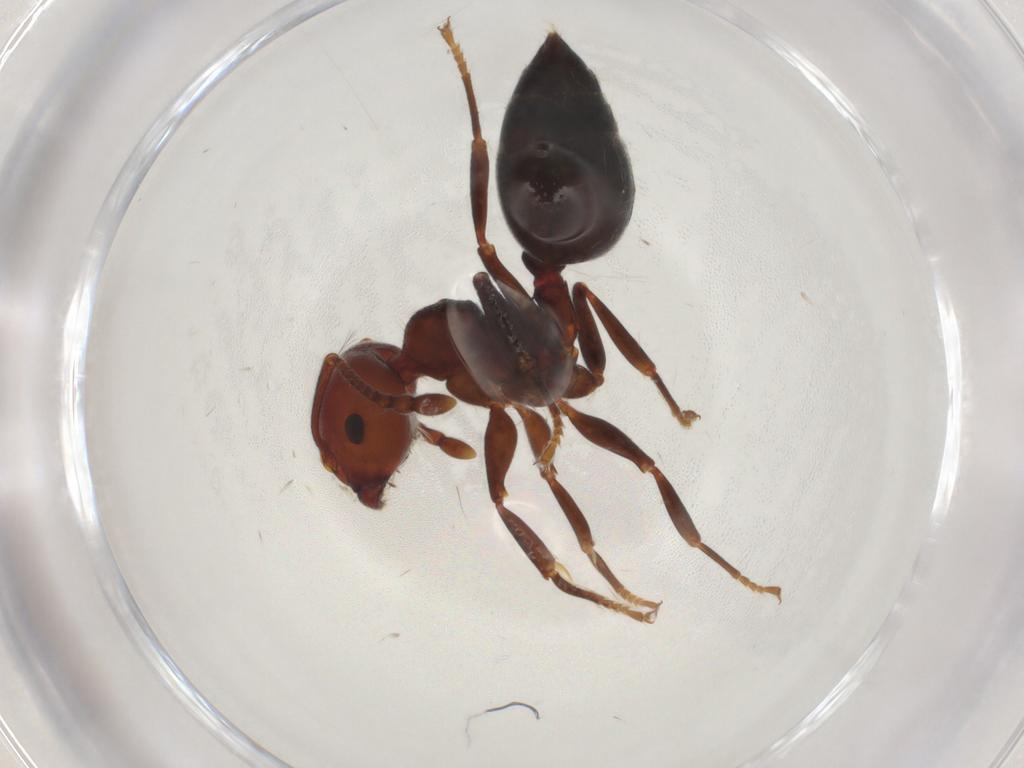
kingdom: Animalia
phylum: Arthropoda
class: Insecta
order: Hymenoptera
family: Formicidae
